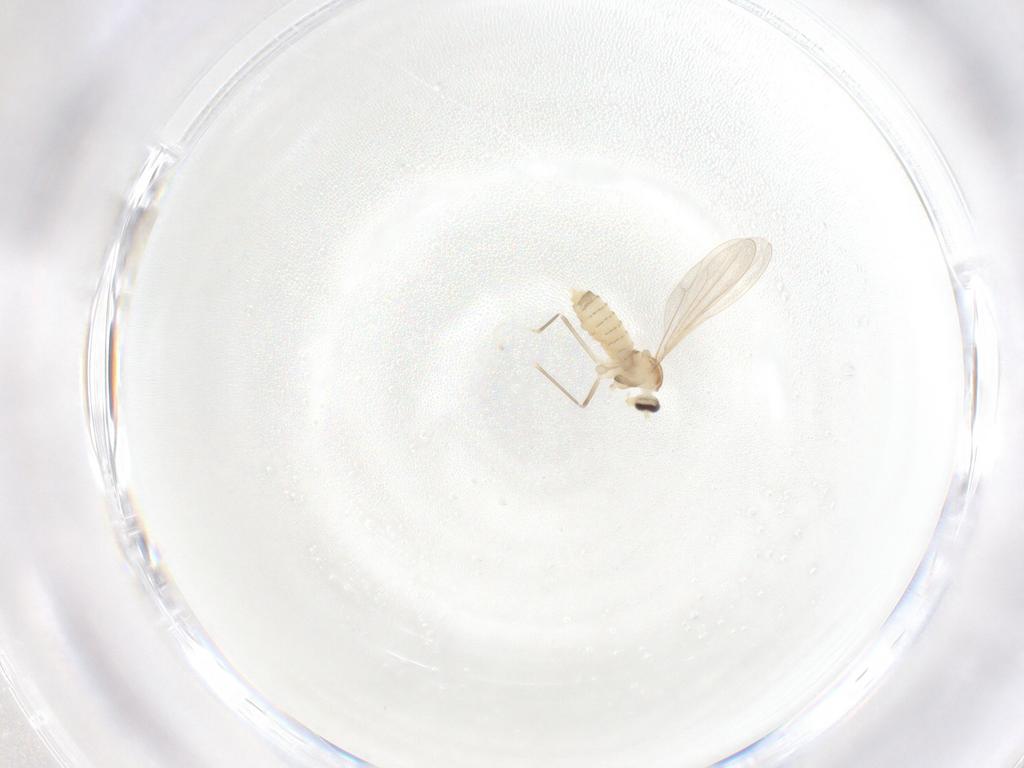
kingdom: Animalia
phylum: Arthropoda
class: Insecta
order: Diptera
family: Cecidomyiidae
